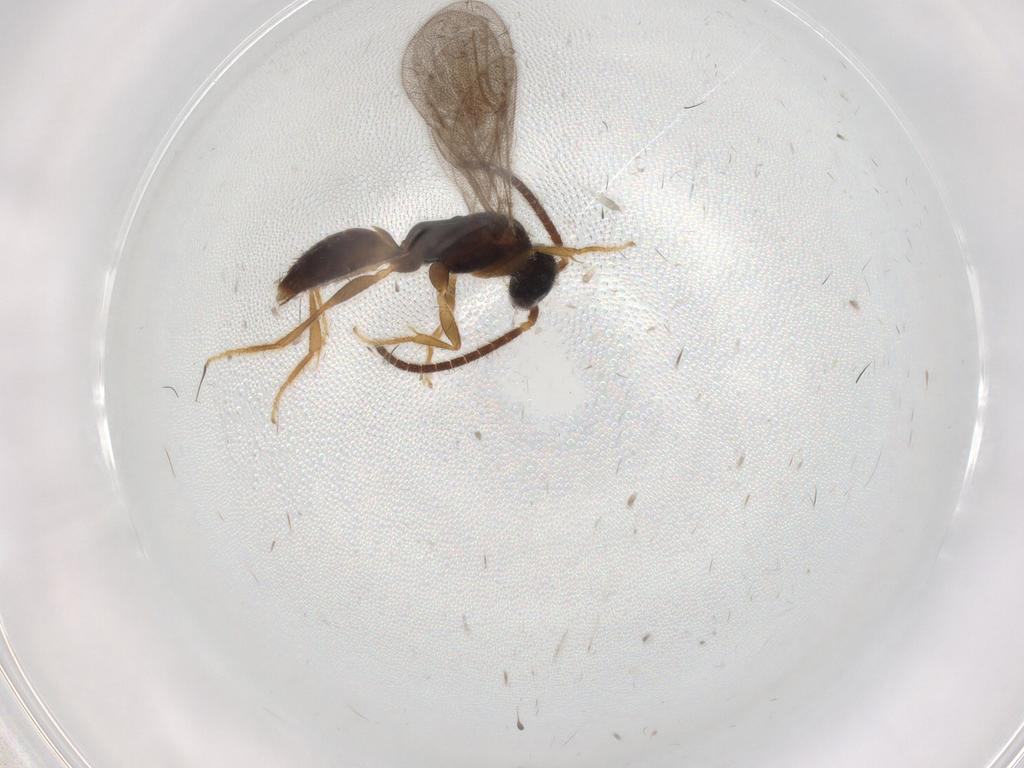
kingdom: Animalia
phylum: Arthropoda
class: Insecta
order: Hymenoptera
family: Bethylidae
